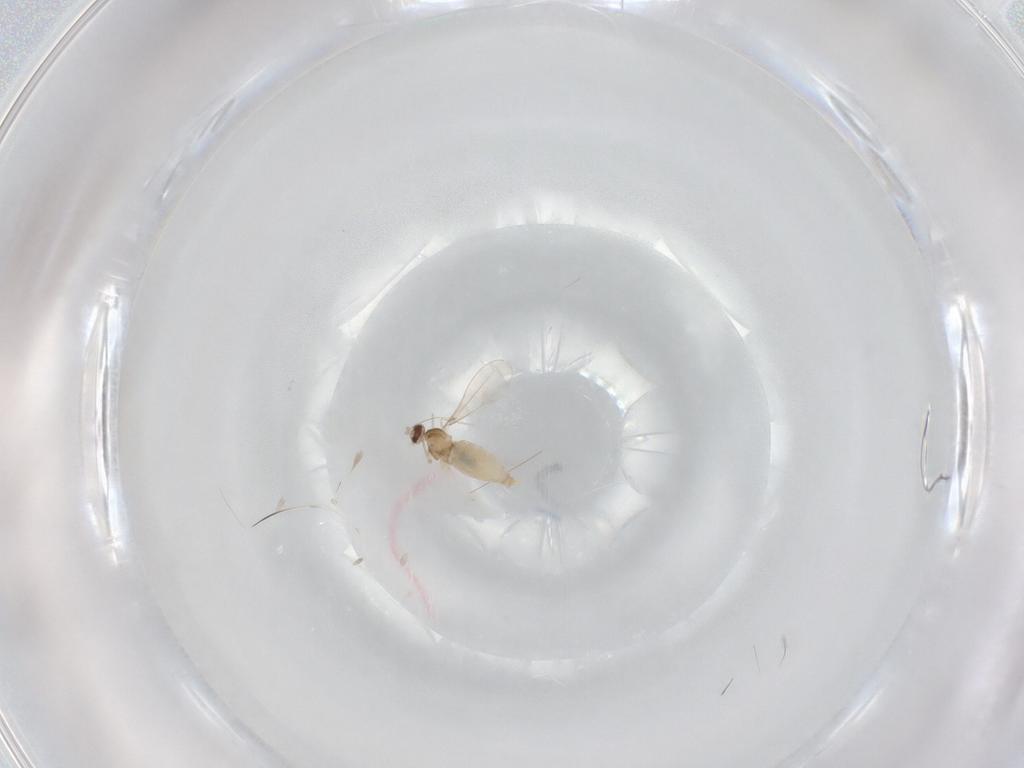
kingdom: Animalia
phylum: Arthropoda
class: Insecta
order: Diptera
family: Cecidomyiidae
